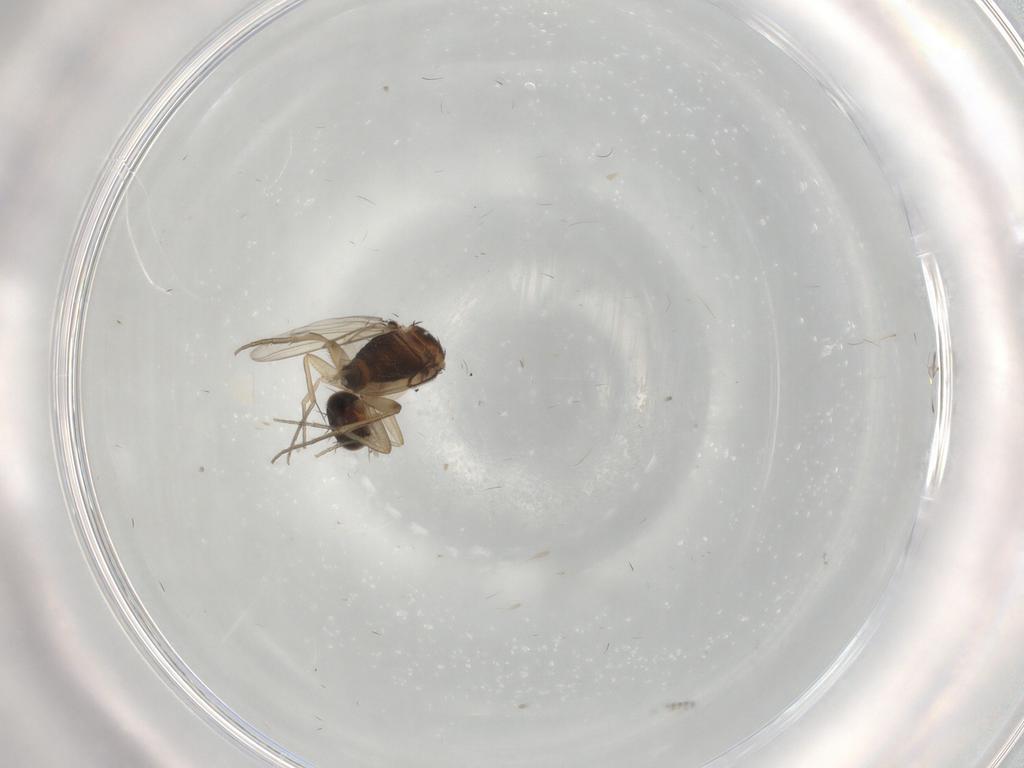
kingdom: Animalia
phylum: Arthropoda
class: Insecta
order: Diptera
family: Phoridae
